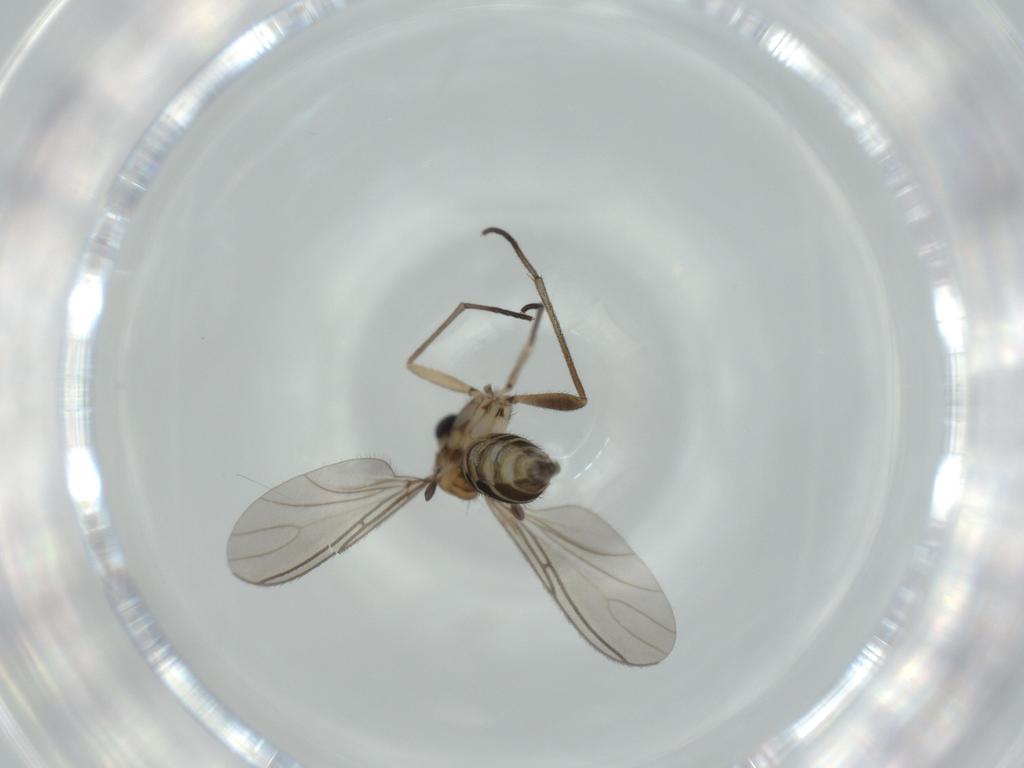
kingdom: Animalia
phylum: Arthropoda
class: Insecta
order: Diptera
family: Sciaridae
